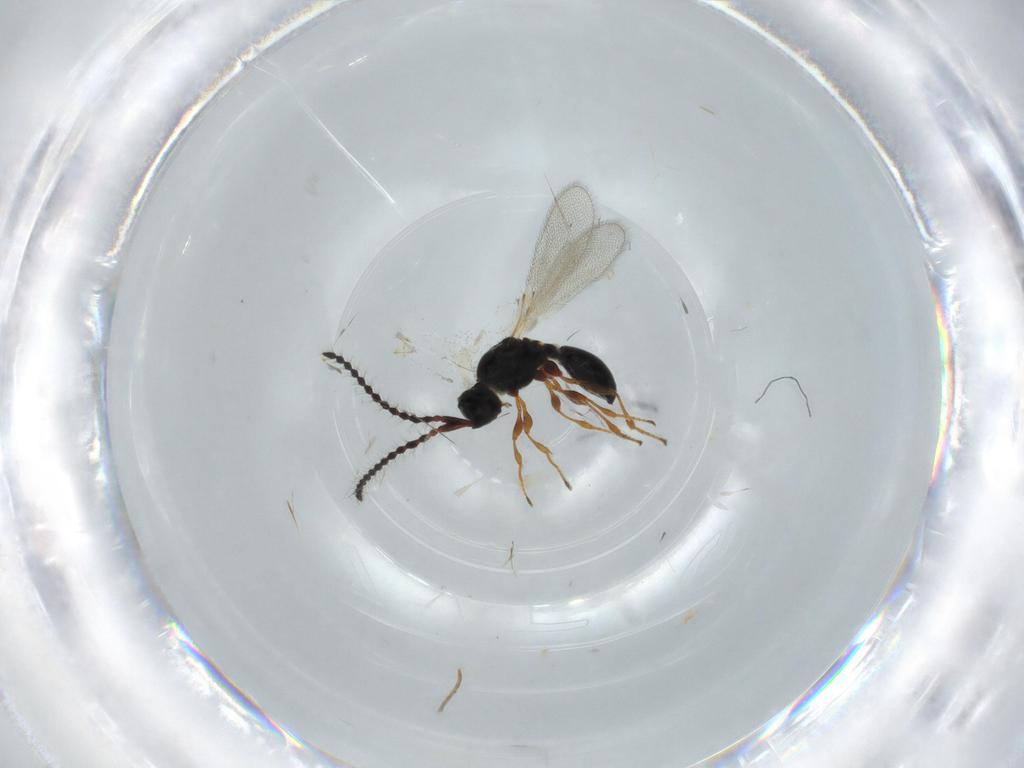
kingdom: Animalia
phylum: Arthropoda
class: Insecta
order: Hymenoptera
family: Diapriidae
